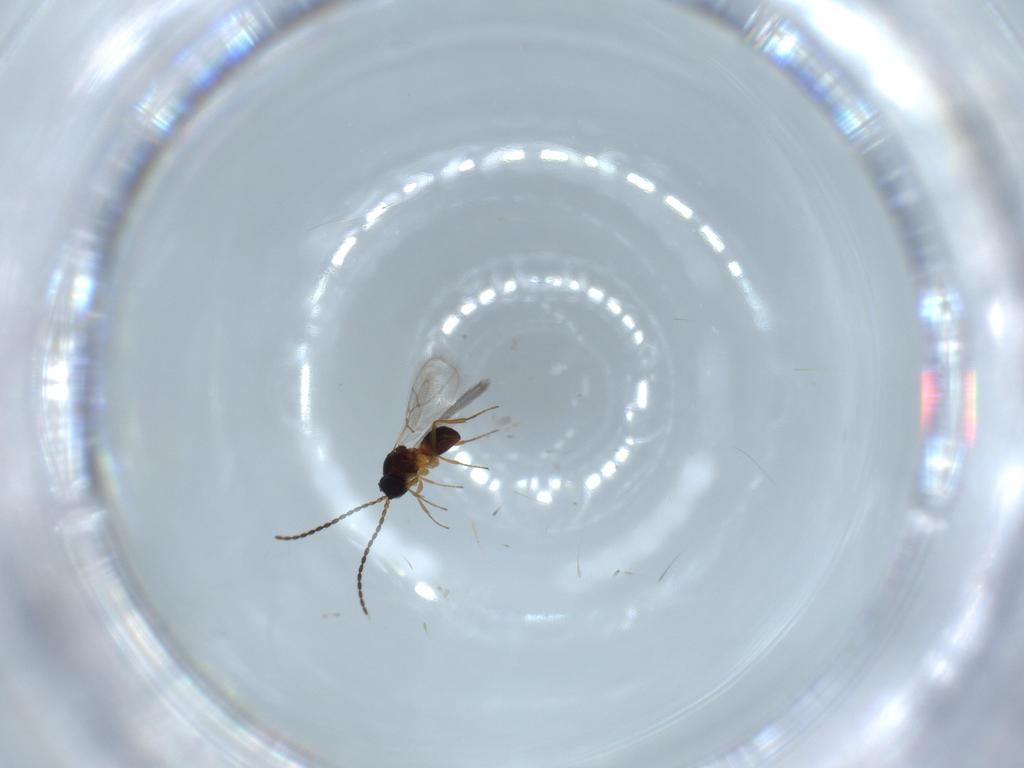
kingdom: Animalia
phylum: Arthropoda
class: Insecta
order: Hymenoptera
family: Figitidae
